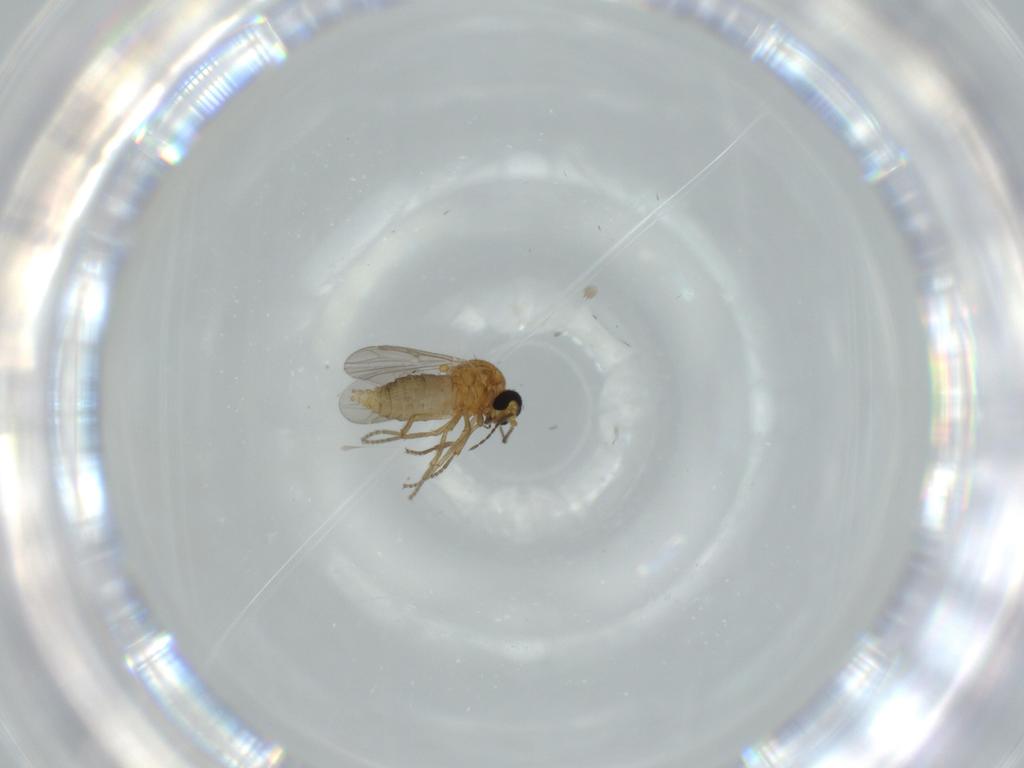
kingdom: Animalia
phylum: Arthropoda
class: Insecta
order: Diptera
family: Ceratopogonidae
